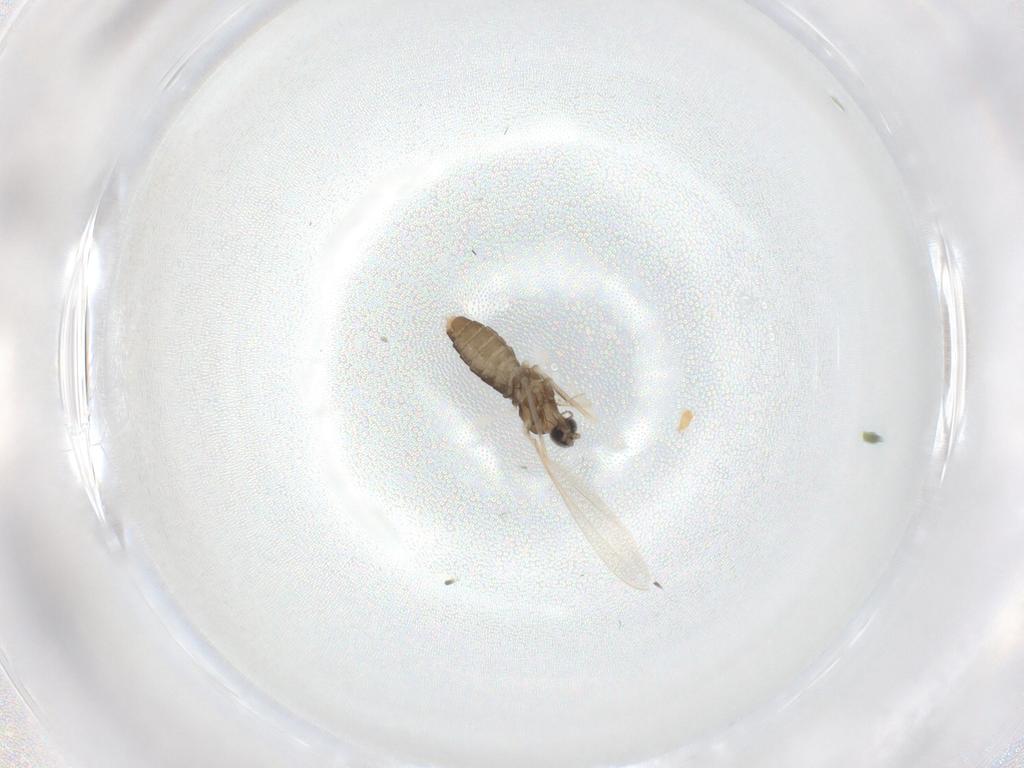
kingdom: Animalia
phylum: Arthropoda
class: Insecta
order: Diptera
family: Cecidomyiidae
